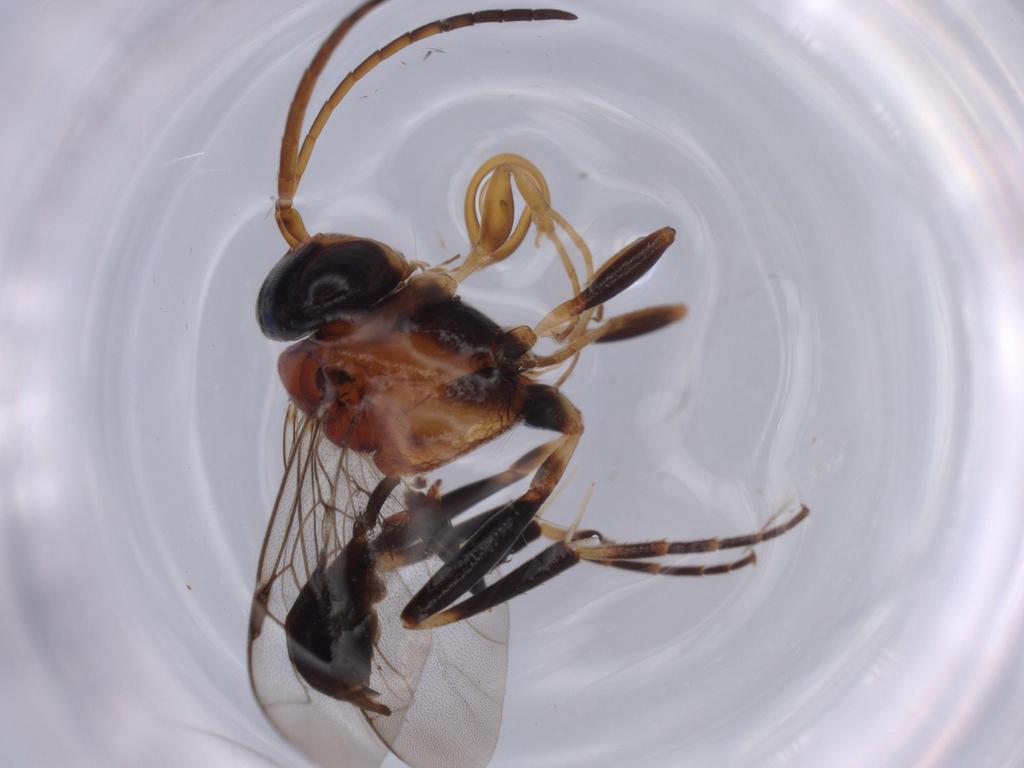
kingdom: Animalia
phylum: Arthropoda
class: Insecta
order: Hymenoptera
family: Evaniidae
